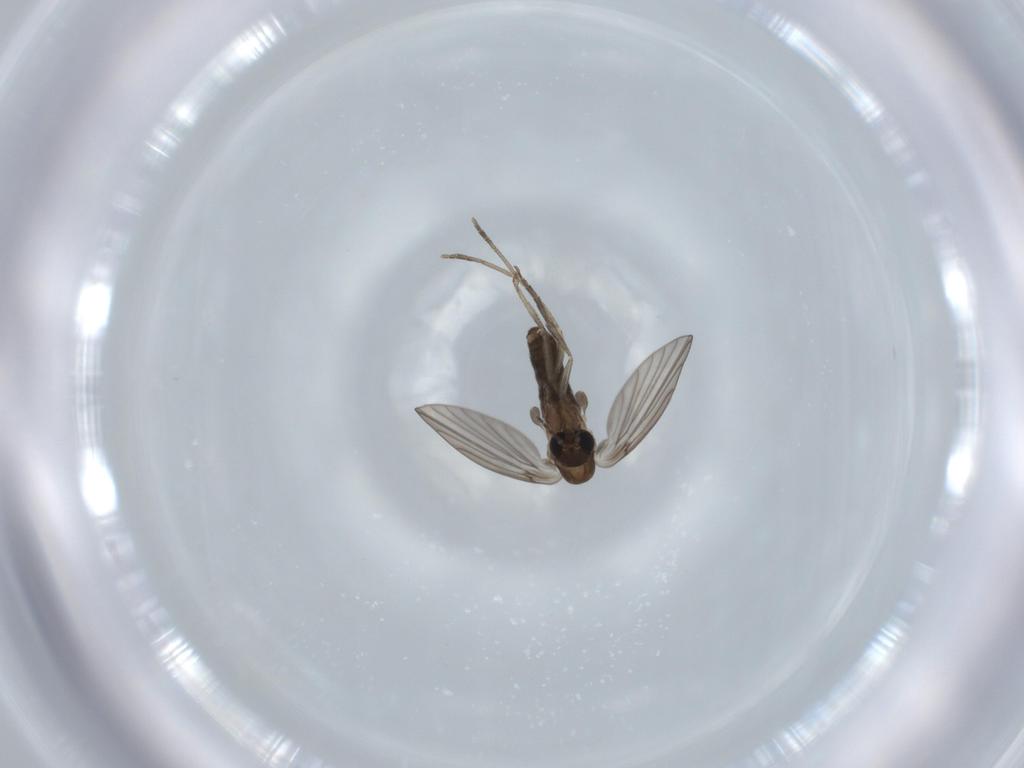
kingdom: Animalia
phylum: Arthropoda
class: Insecta
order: Diptera
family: Psychodidae
